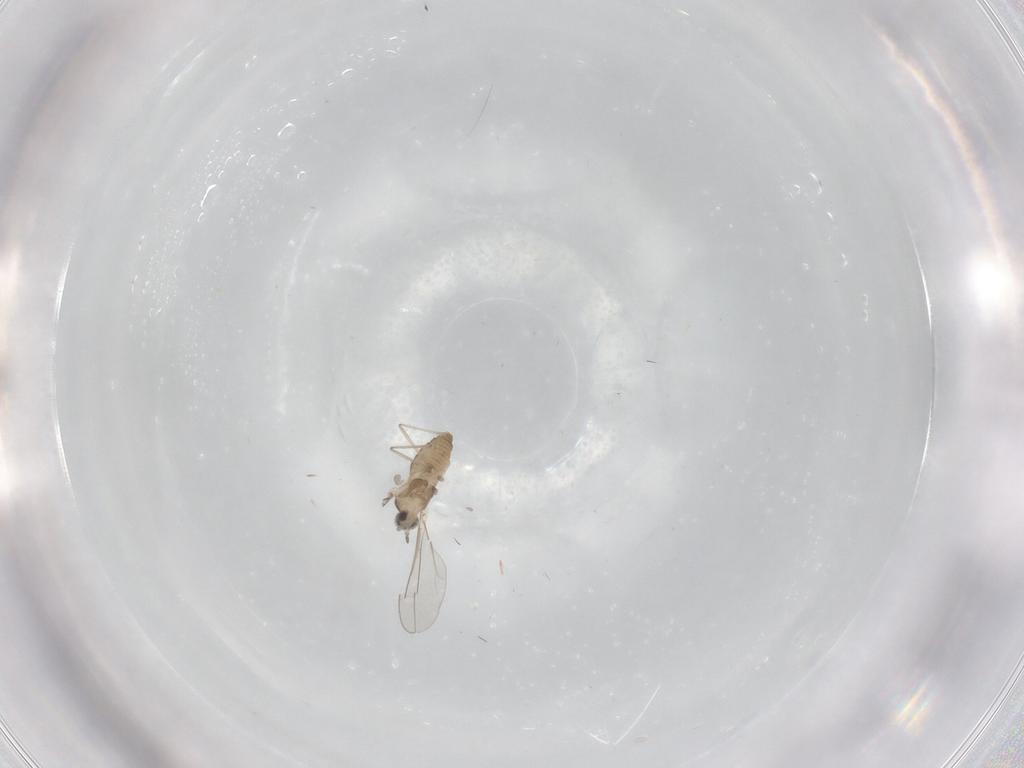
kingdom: Animalia
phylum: Arthropoda
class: Insecta
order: Diptera
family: Cecidomyiidae
